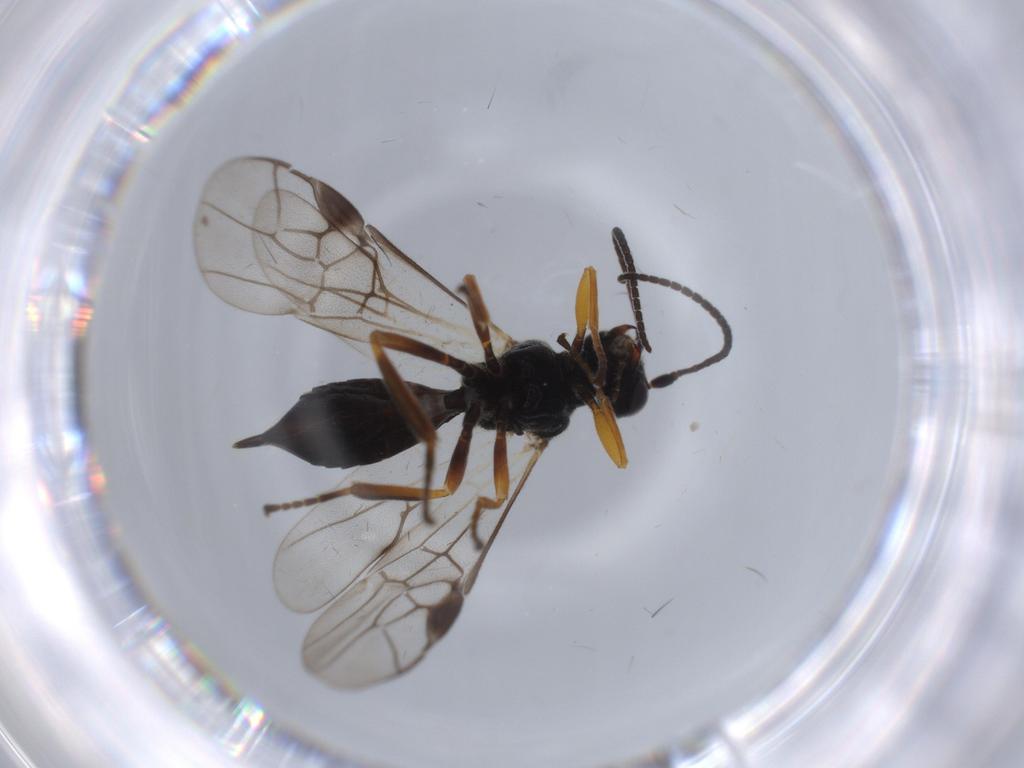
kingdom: Animalia
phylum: Arthropoda
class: Insecta
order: Hymenoptera
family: Braconidae
